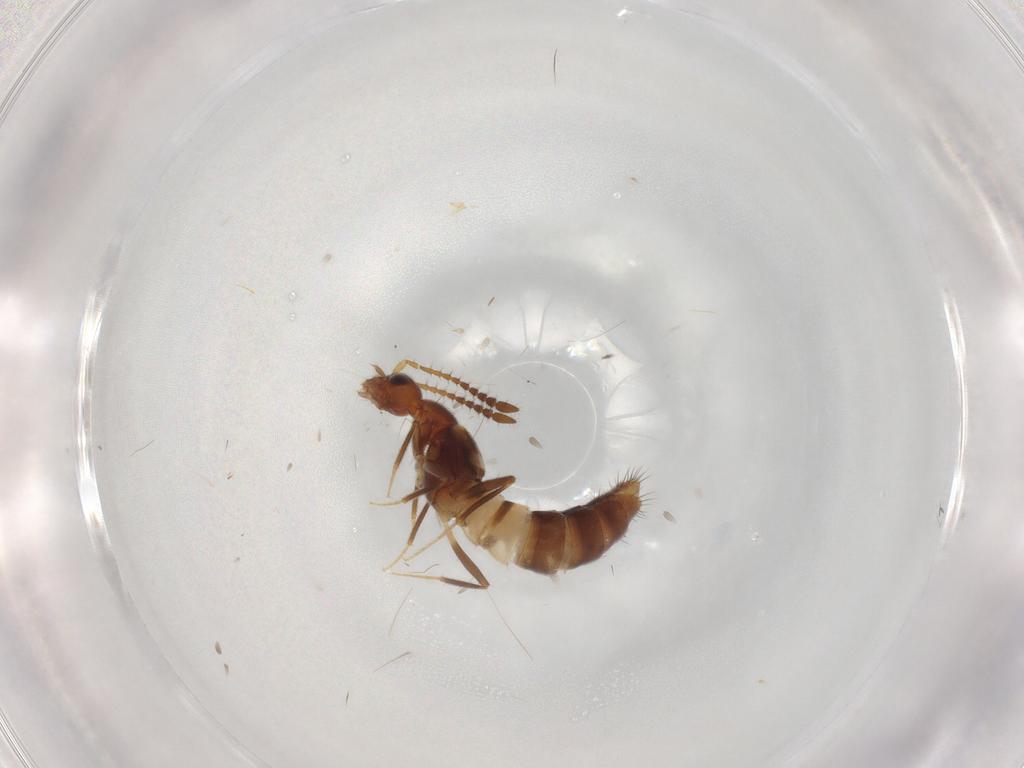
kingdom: Animalia
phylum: Arthropoda
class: Insecta
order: Coleoptera
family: Staphylinidae
